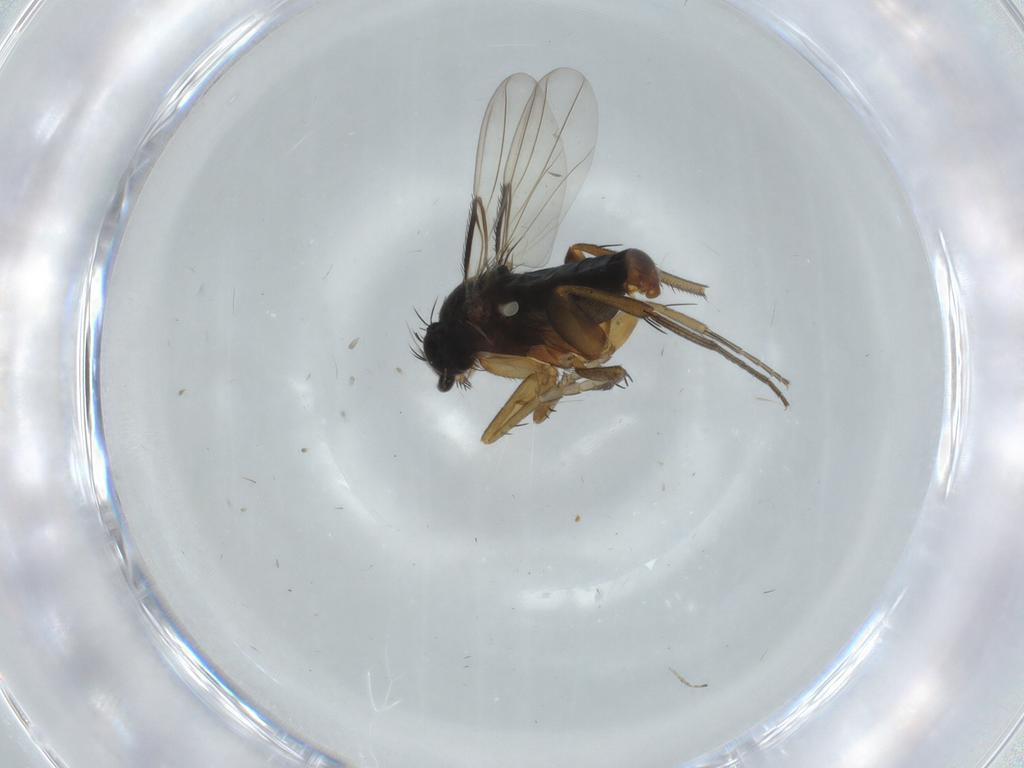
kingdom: Animalia
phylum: Arthropoda
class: Insecta
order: Diptera
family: Phoridae
